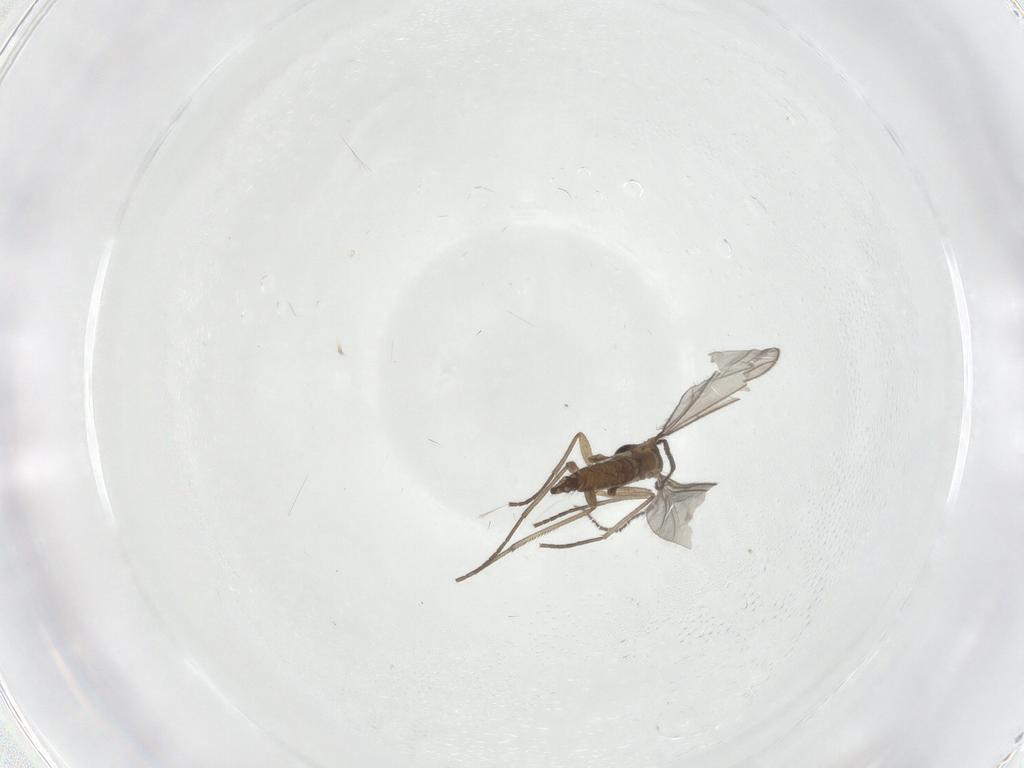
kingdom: Animalia
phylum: Arthropoda
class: Insecta
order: Diptera
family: Sciaridae
